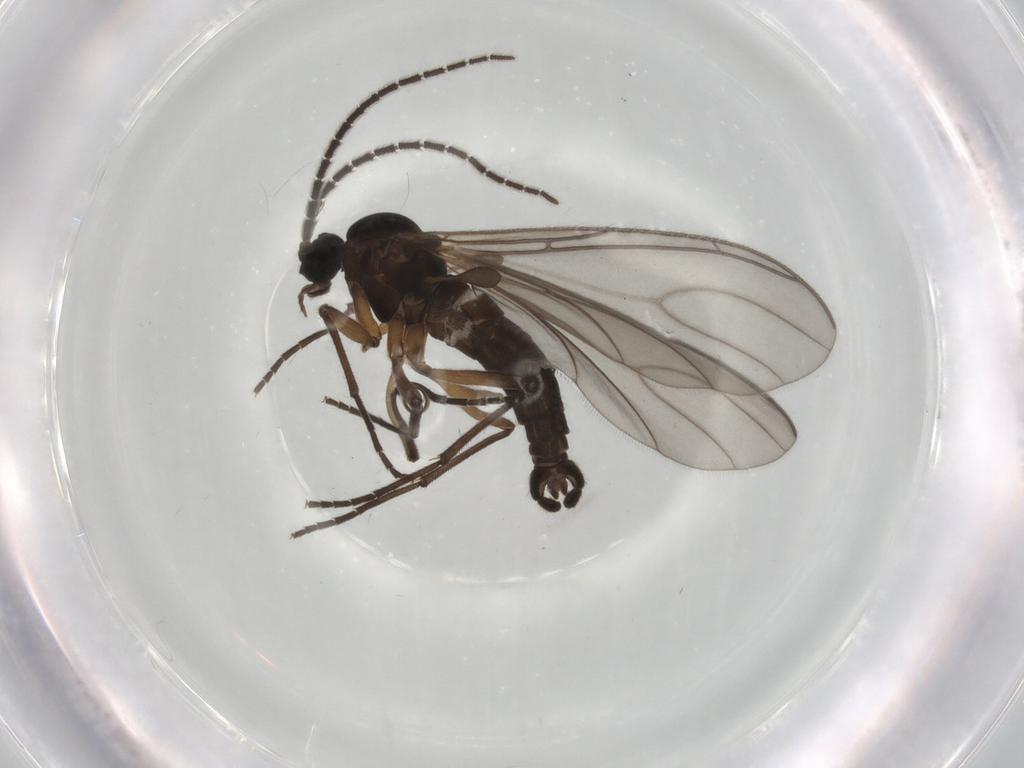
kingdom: Animalia
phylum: Arthropoda
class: Insecta
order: Diptera
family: Sciaridae
